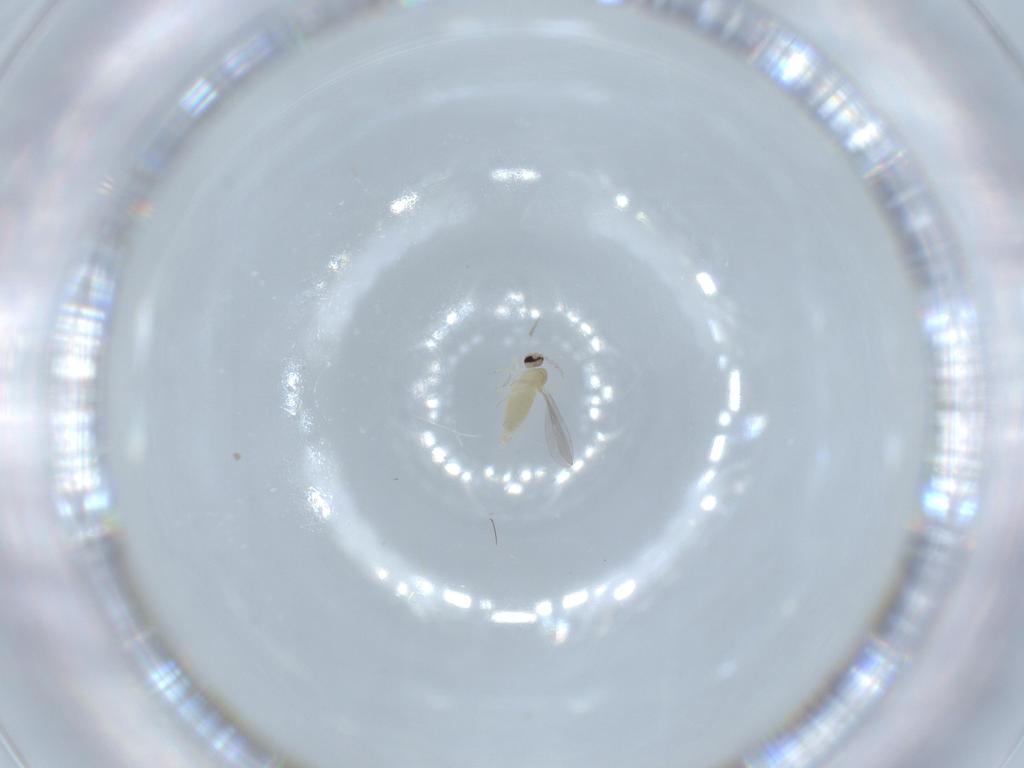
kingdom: Animalia
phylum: Arthropoda
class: Insecta
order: Diptera
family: Cecidomyiidae
